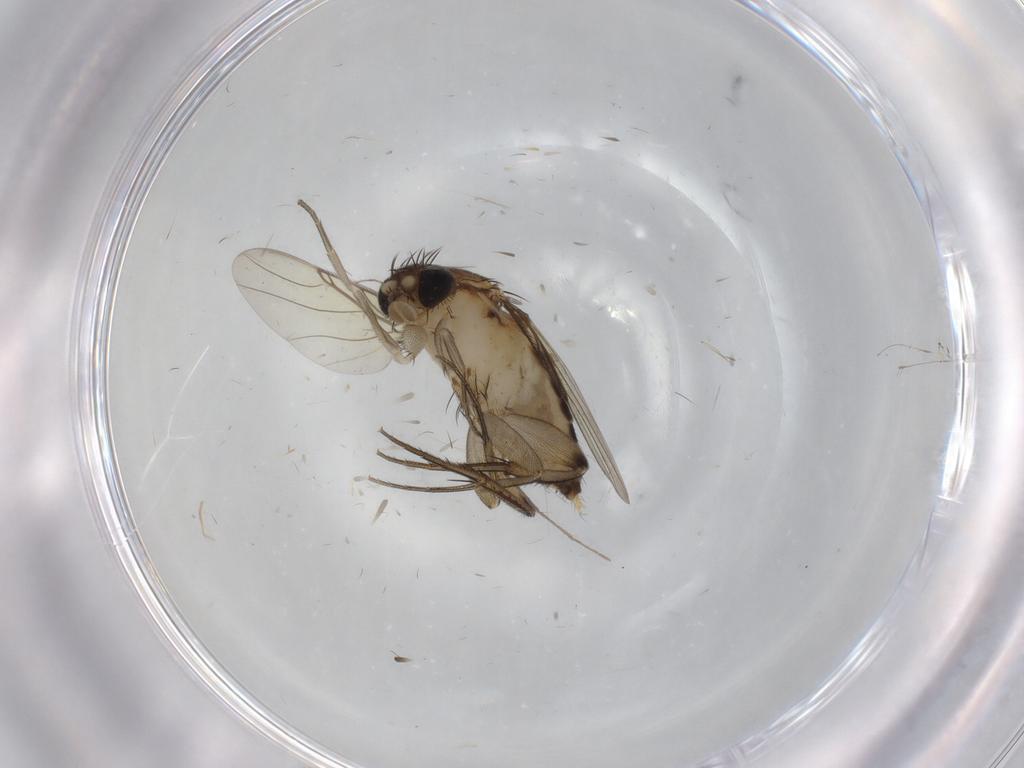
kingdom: Animalia
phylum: Arthropoda
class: Insecta
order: Diptera
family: Phoridae
